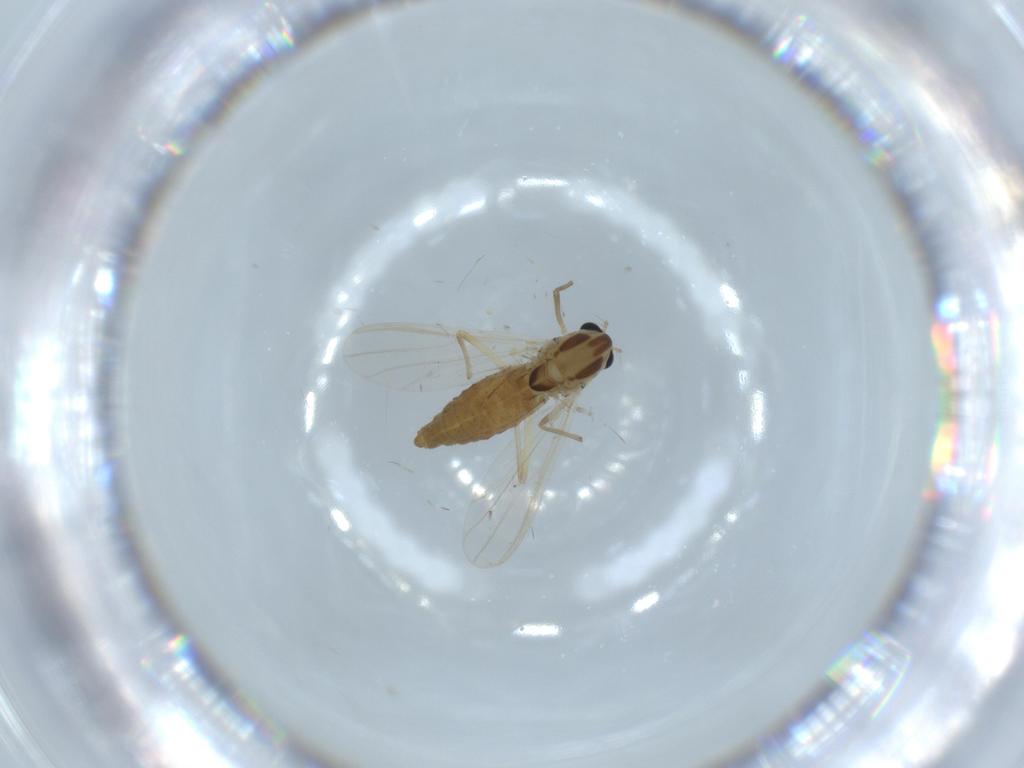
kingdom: Animalia
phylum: Arthropoda
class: Insecta
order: Diptera
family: Chironomidae
